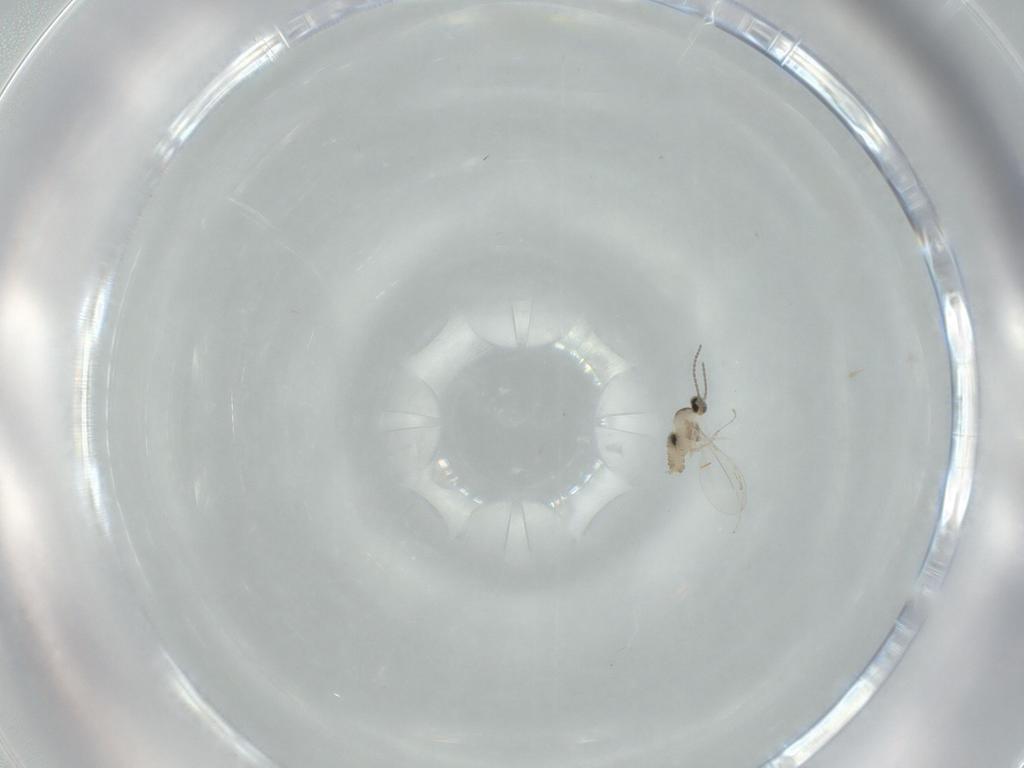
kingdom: Animalia
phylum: Arthropoda
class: Insecta
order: Diptera
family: Cecidomyiidae
